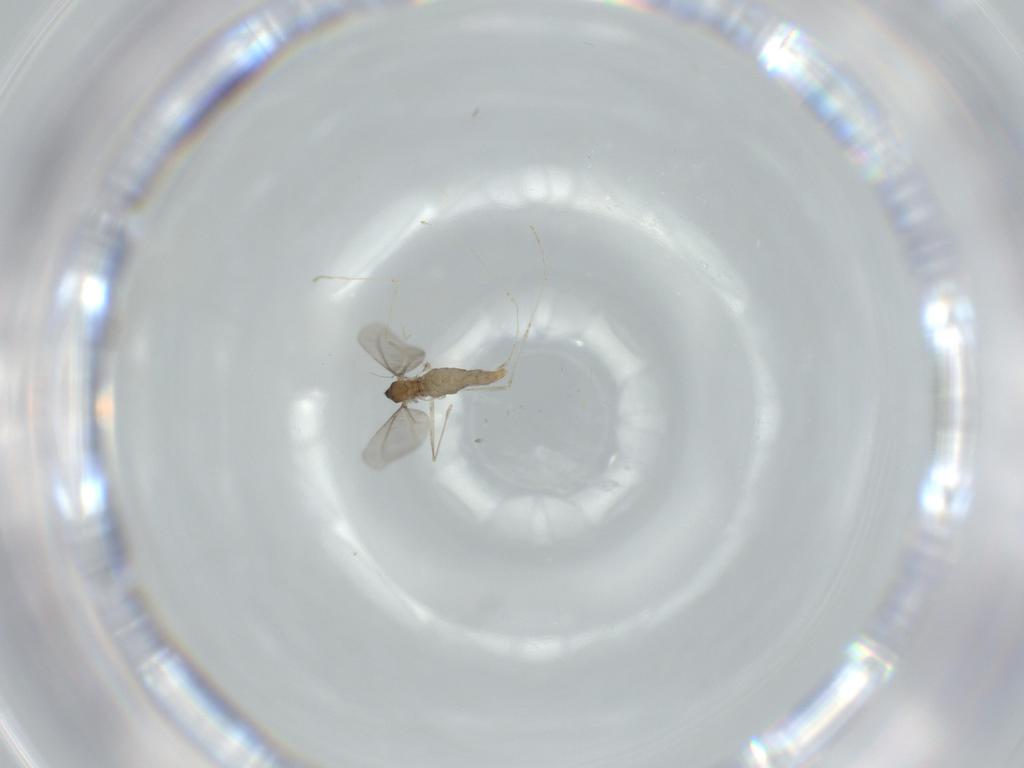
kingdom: Animalia
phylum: Arthropoda
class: Insecta
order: Diptera
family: Cecidomyiidae
